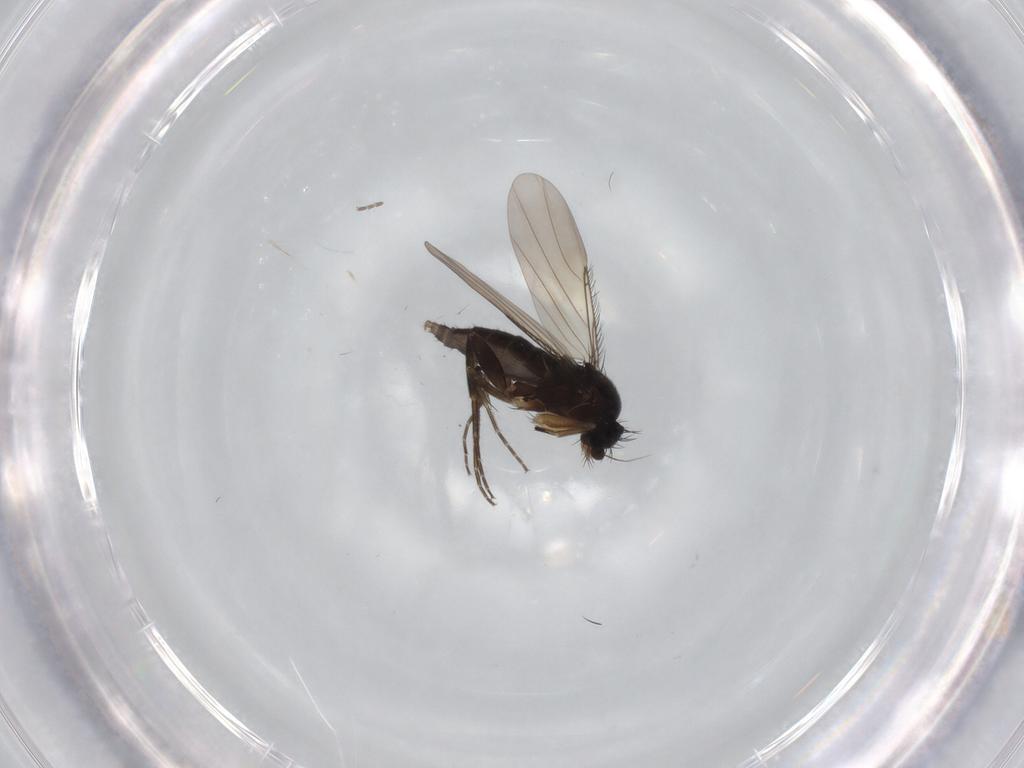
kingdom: Animalia
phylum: Arthropoda
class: Insecta
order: Diptera
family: Phoridae
